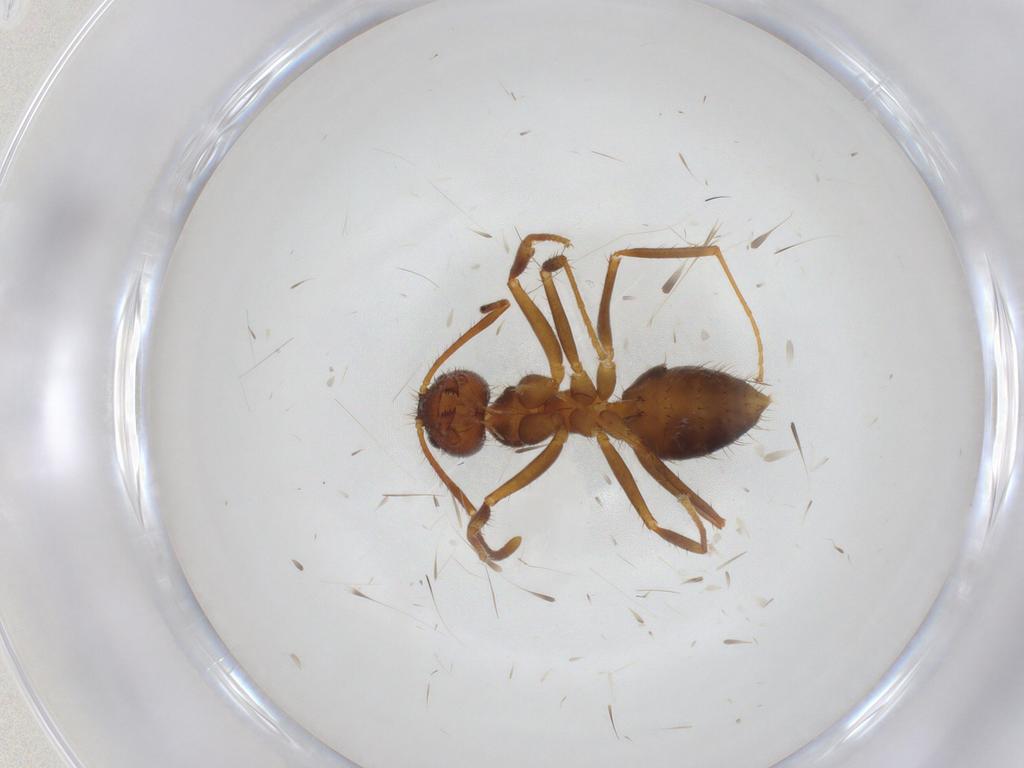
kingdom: Animalia
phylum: Arthropoda
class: Insecta
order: Hymenoptera
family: Formicidae
